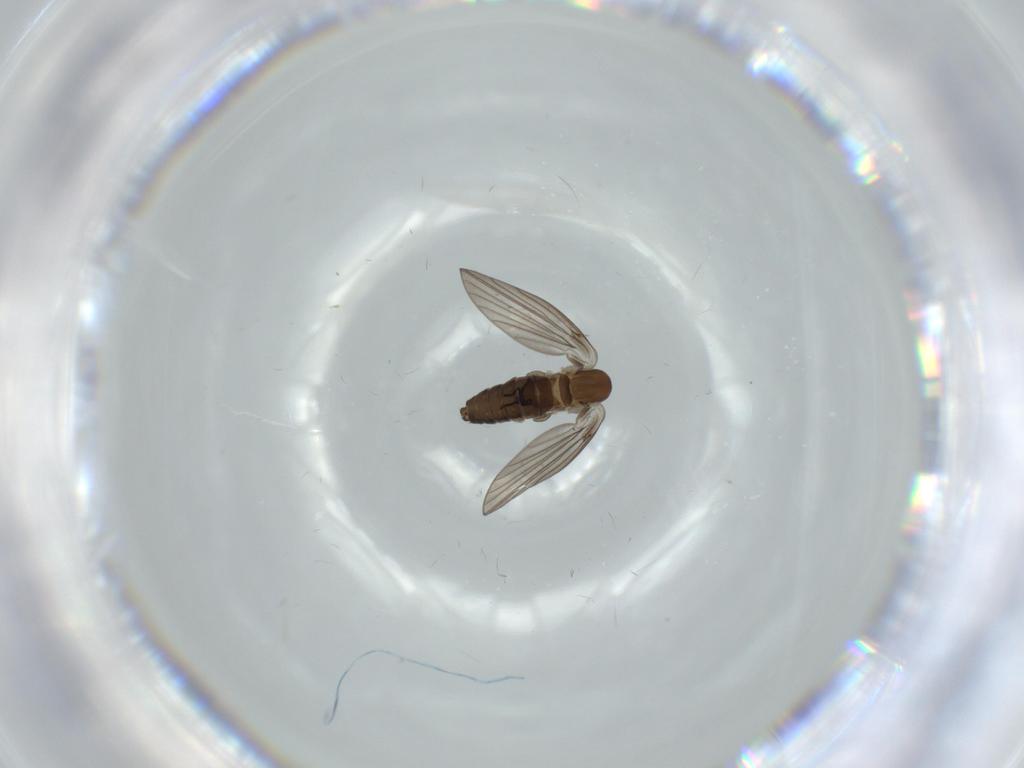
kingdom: Animalia
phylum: Arthropoda
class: Insecta
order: Diptera
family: Psychodidae
